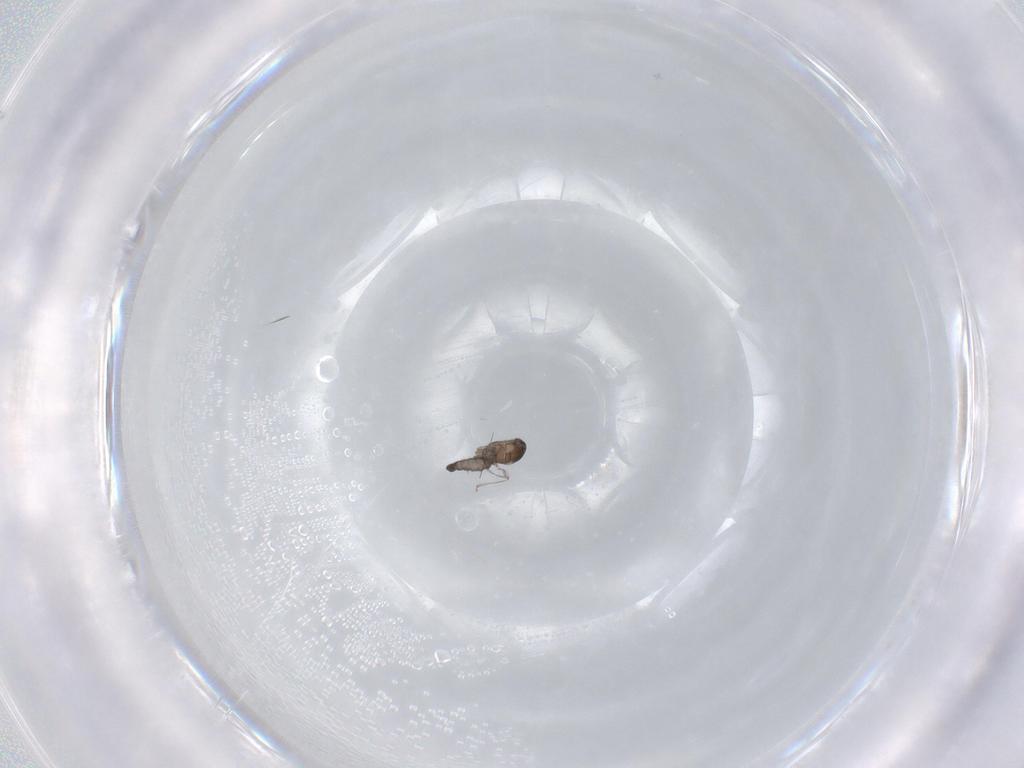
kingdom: Animalia
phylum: Arthropoda
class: Insecta
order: Diptera
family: Cecidomyiidae
